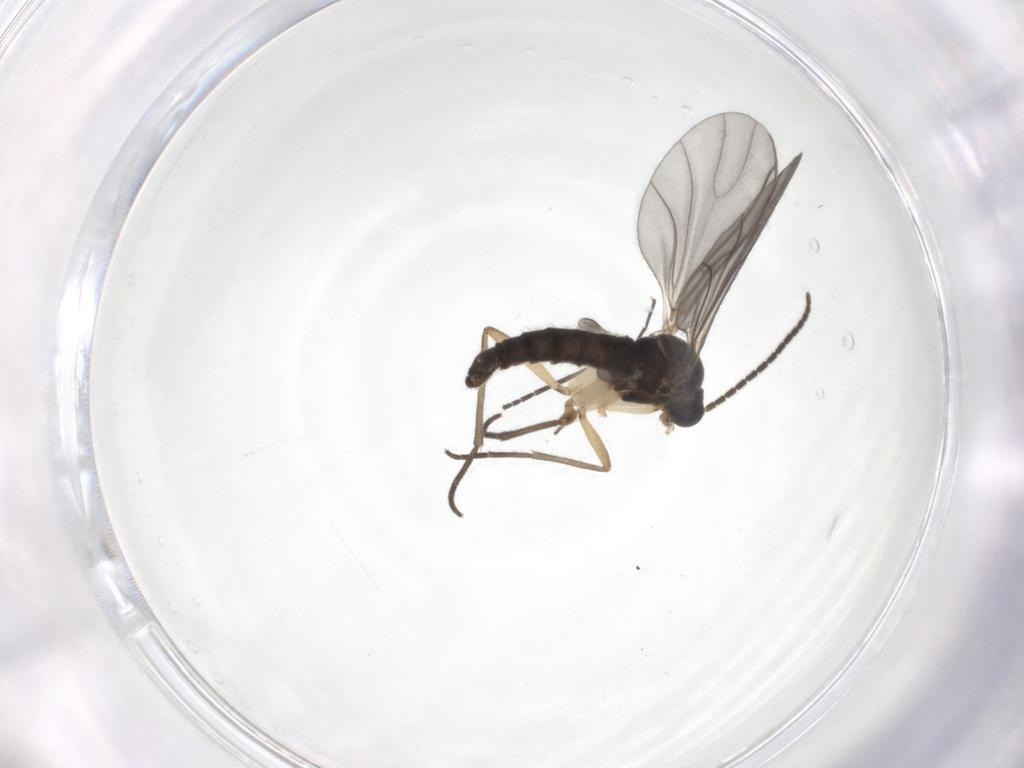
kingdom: Animalia
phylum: Arthropoda
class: Insecta
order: Diptera
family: Sciaridae
